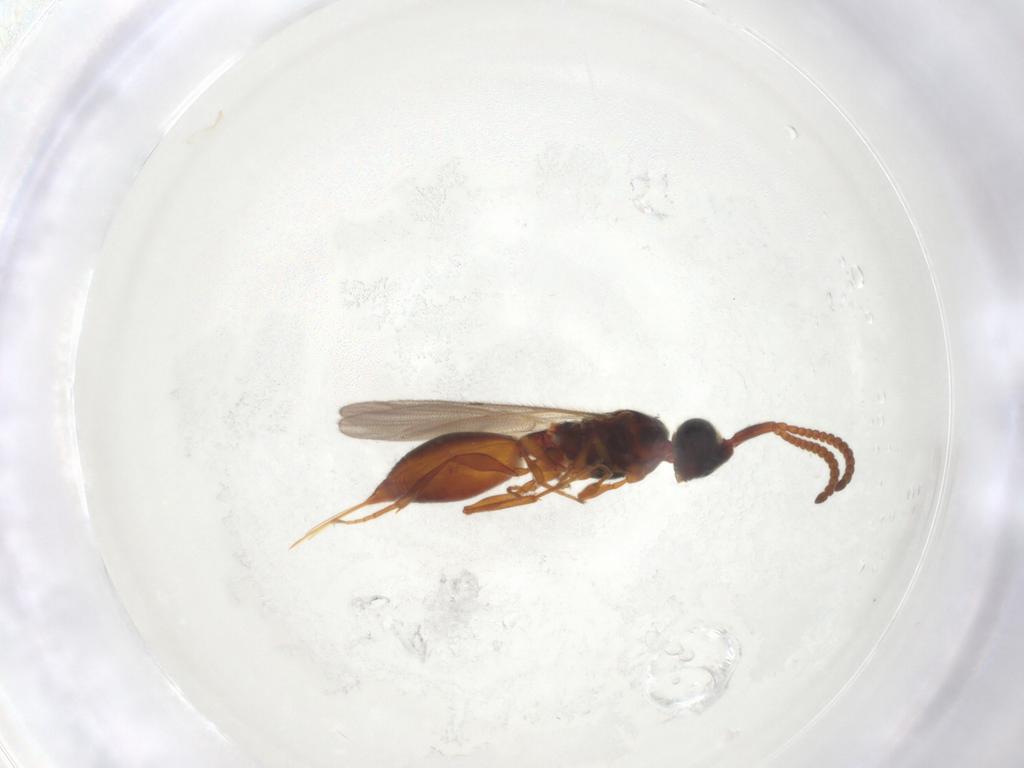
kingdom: Animalia
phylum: Arthropoda
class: Insecta
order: Hymenoptera
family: Diapriidae
